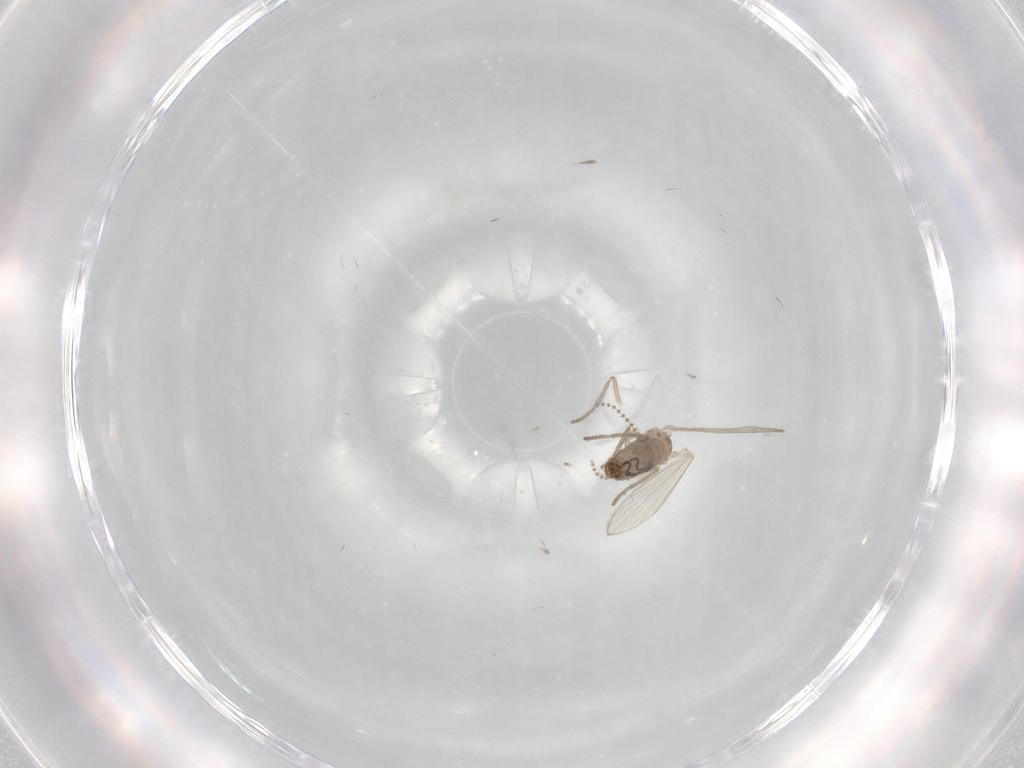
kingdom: Animalia
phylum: Arthropoda
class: Insecta
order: Diptera
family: Psychodidae
